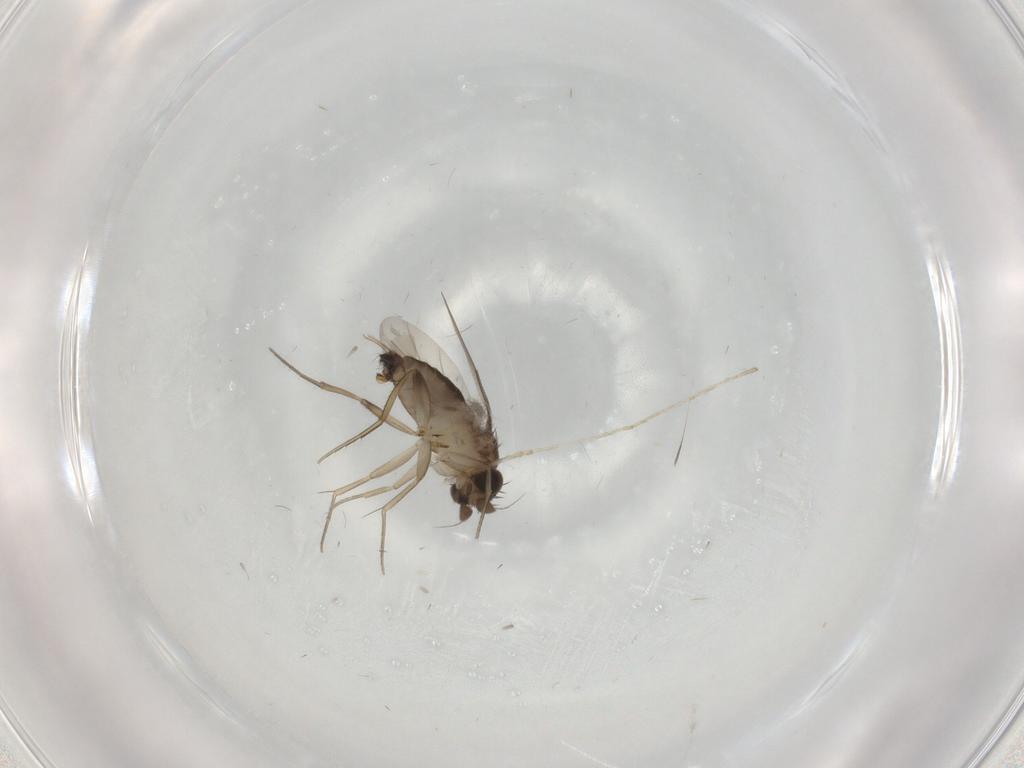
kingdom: Animalia
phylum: Arthropoda
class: Insecta
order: Diptera
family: Phoridae
